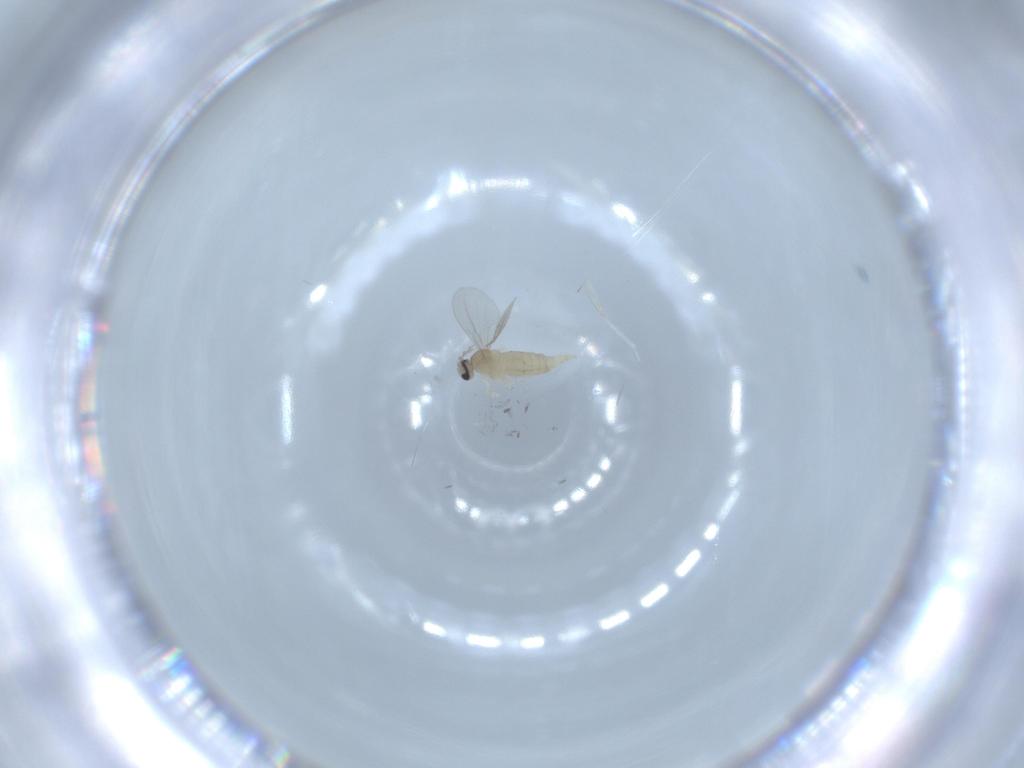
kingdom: Animalia
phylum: Arthropoda
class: Insecta
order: Diptera
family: Cecidomyiidae
